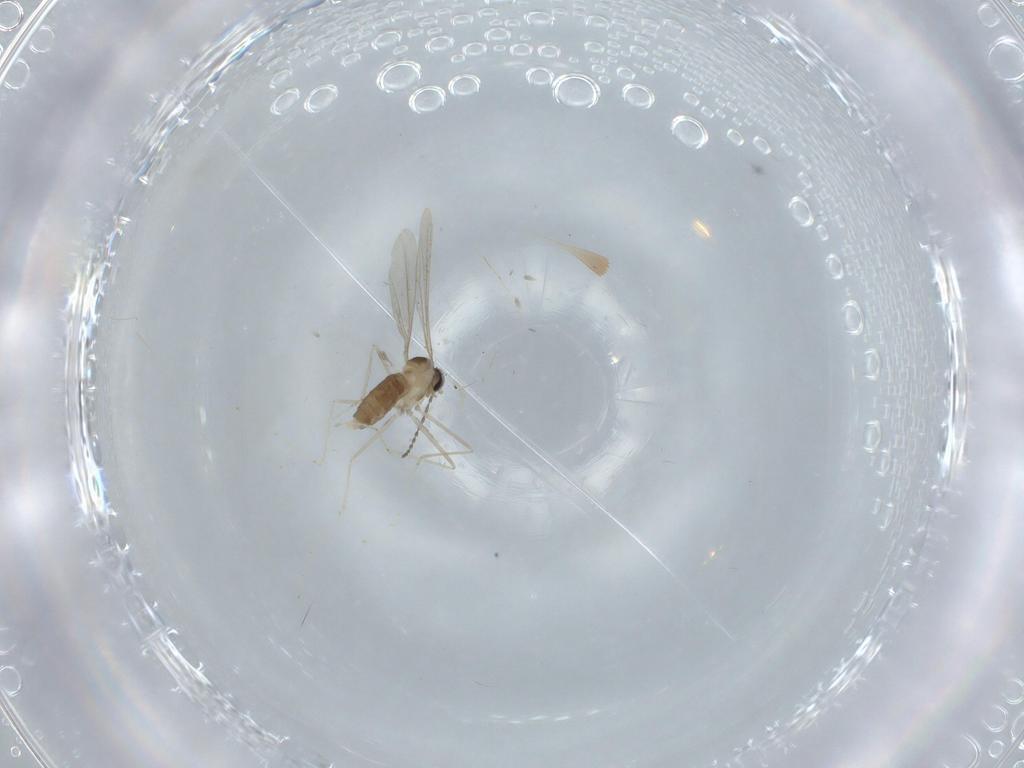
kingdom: Animalia
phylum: Arthropoda
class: Insecta
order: Diptera
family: Cecidomyiidae
